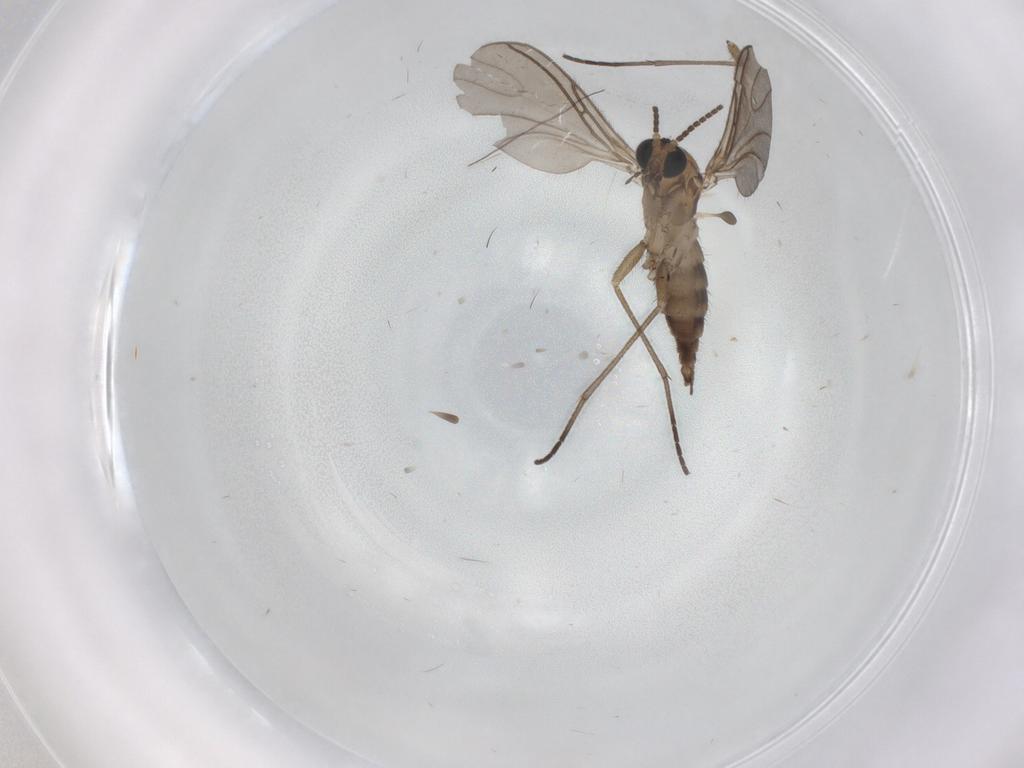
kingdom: Animalia
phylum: Arthropoda
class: Insecta
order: Diptera
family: Sciaridae
